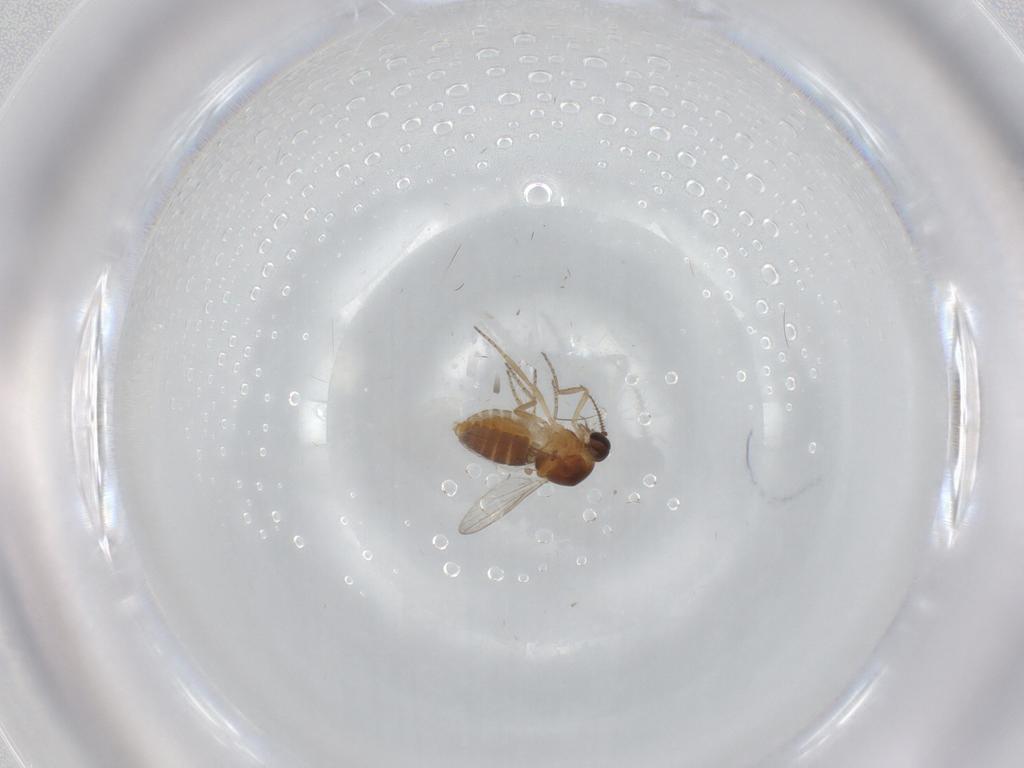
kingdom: Animalia
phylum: Arthropoda
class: Insecta
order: Diptera
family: Ceratopogonidae
